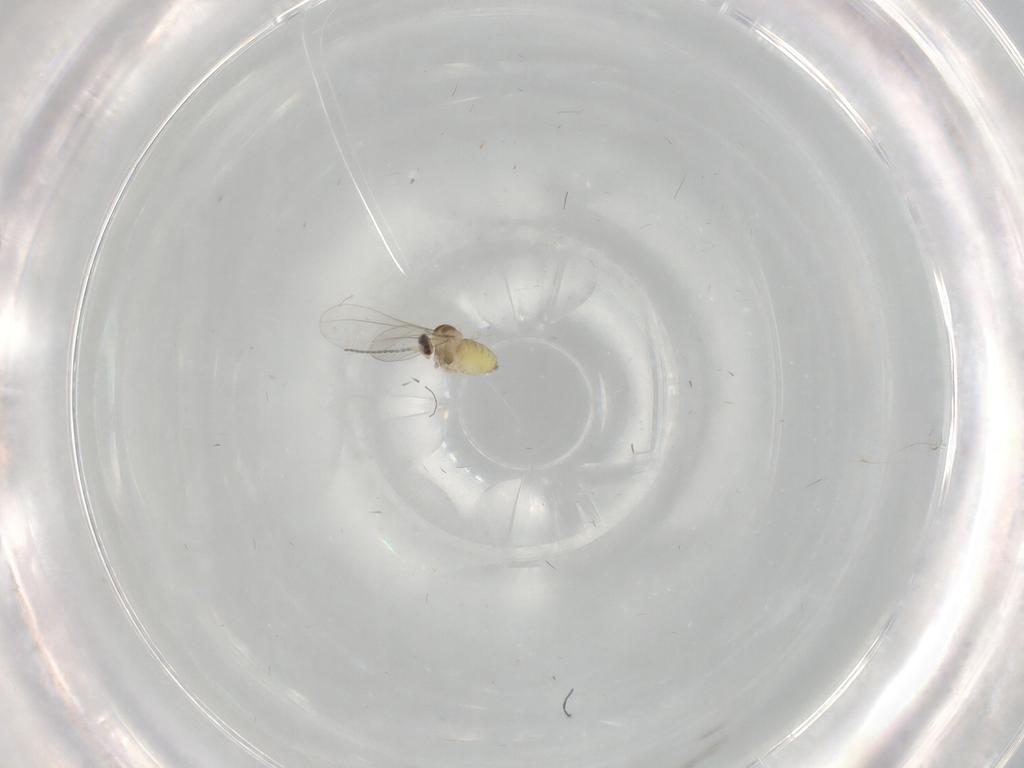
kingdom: Animalia
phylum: Arthropoda
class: Insecta
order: Diptera
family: Cecidomyiidae
